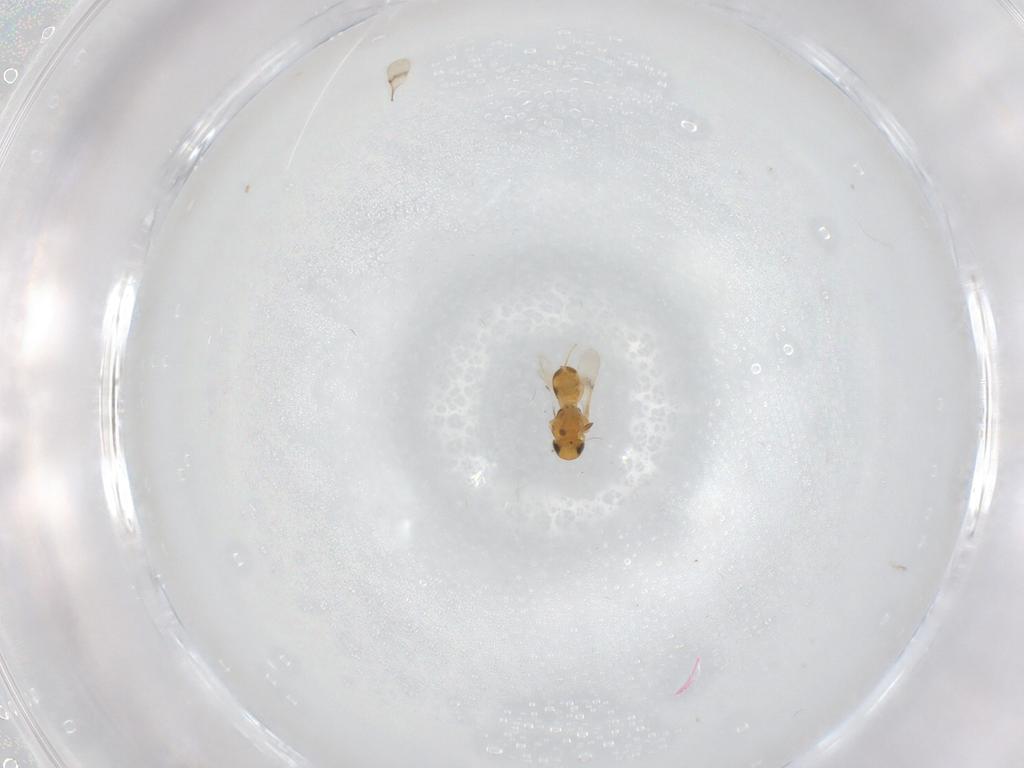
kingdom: Animalia
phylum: Arthropoda
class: Insecta
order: Hymenoptera
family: Scelionidae
